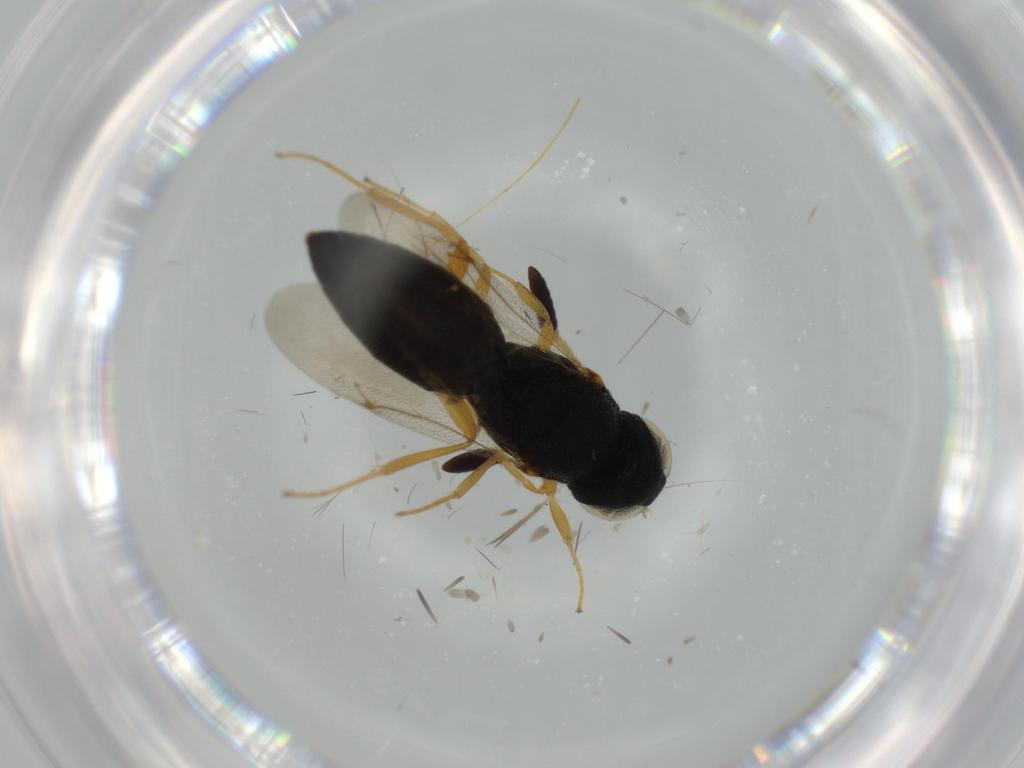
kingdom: Animalia
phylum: Arthropoda
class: Insecta
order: Hymenoptera
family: Scelionidae
